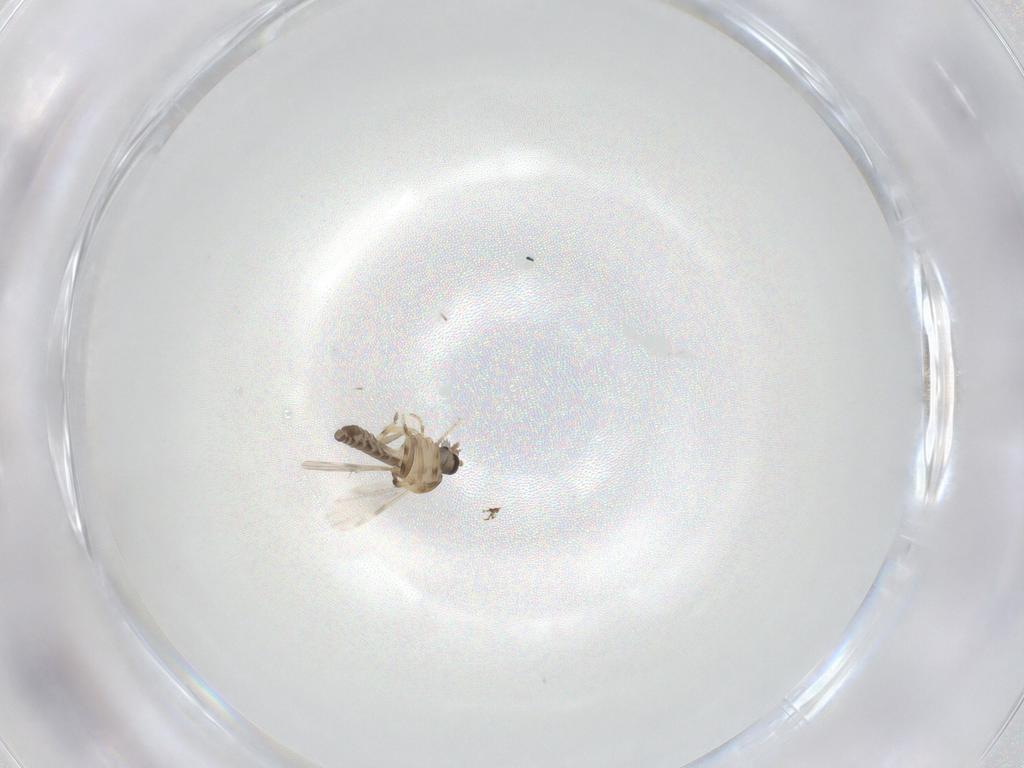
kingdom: Animalia
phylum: Arthropoda
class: Insecta
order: Diptera
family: Ceratopogonidae
